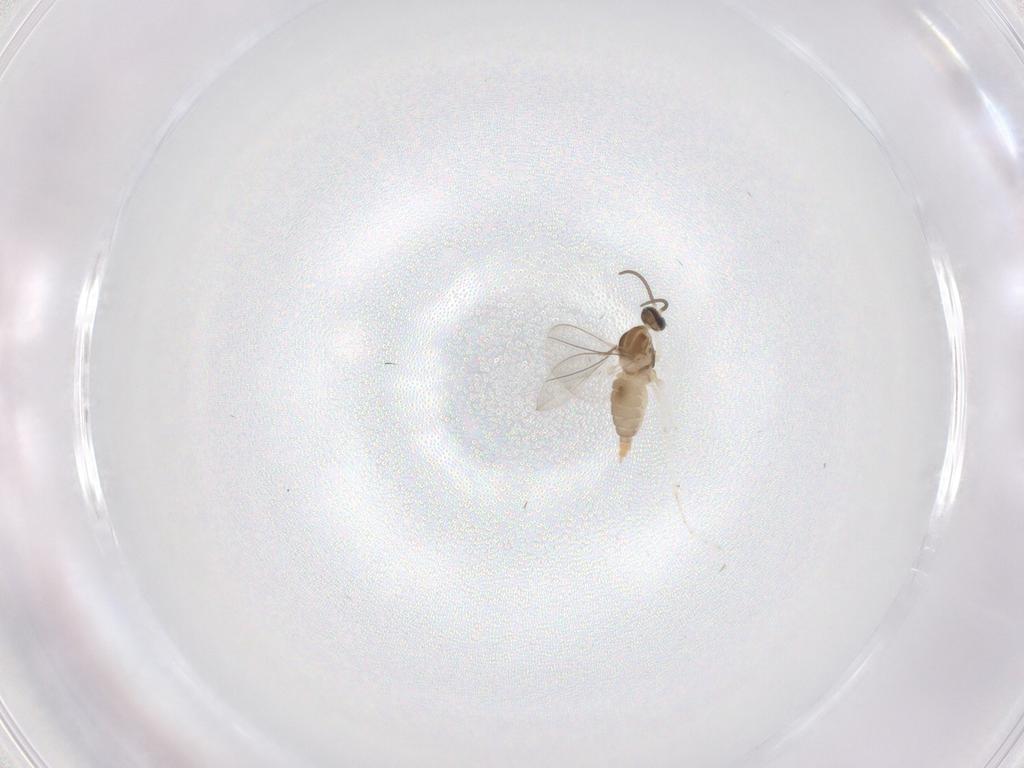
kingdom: Animalia
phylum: Arthropoda
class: Insecta
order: Diptera
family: Cecidomyiidae
